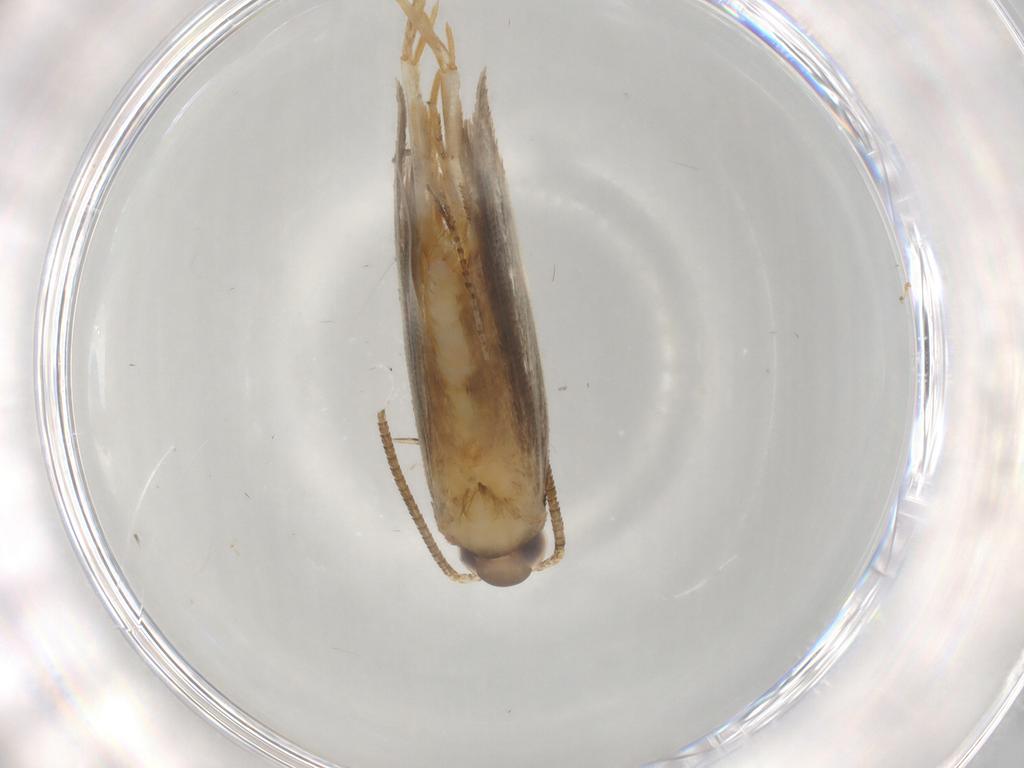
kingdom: Animalia
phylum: Arthropoda
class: Insecta
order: Lepidoptera
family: Autostichidae
